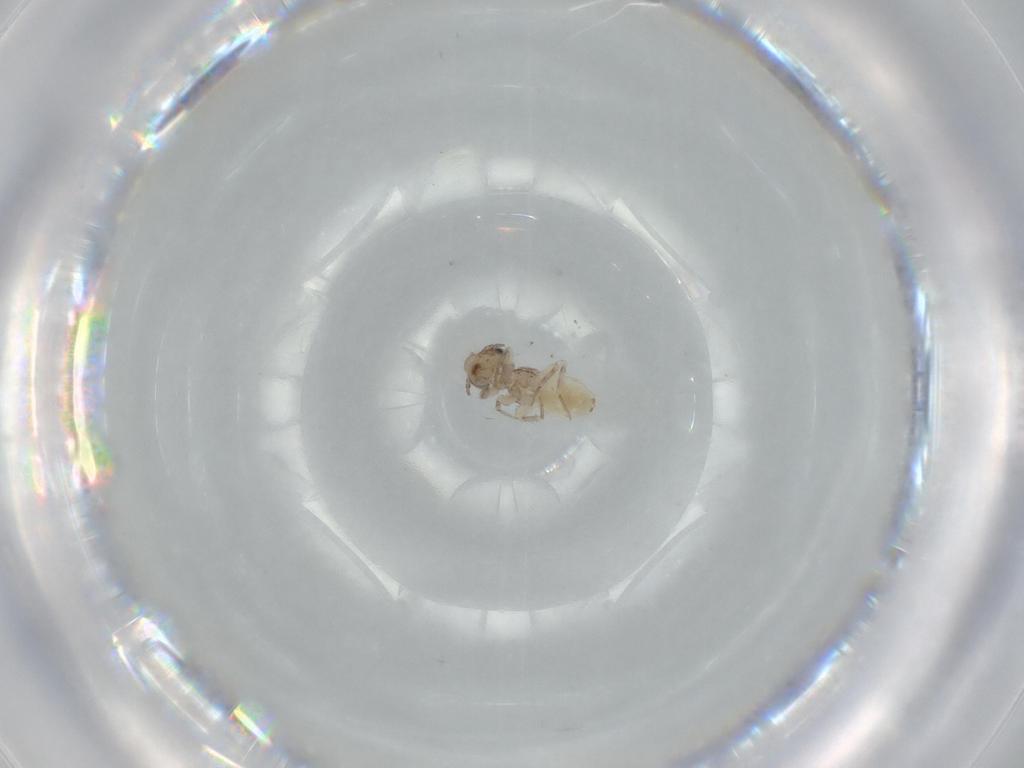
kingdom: Animalia
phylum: Arthropoda
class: Insecta
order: Psocodea
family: Lepidopsocidae
